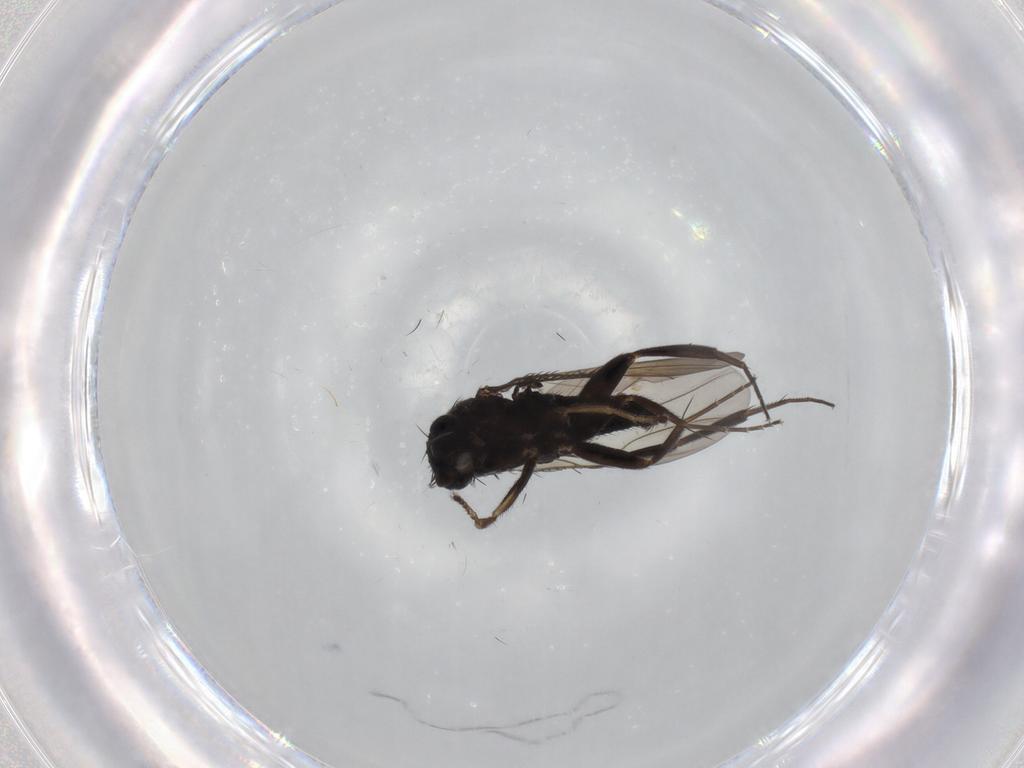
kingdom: Animalia
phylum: Arthropoda
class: Insecta
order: Diptera
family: Phoridae
